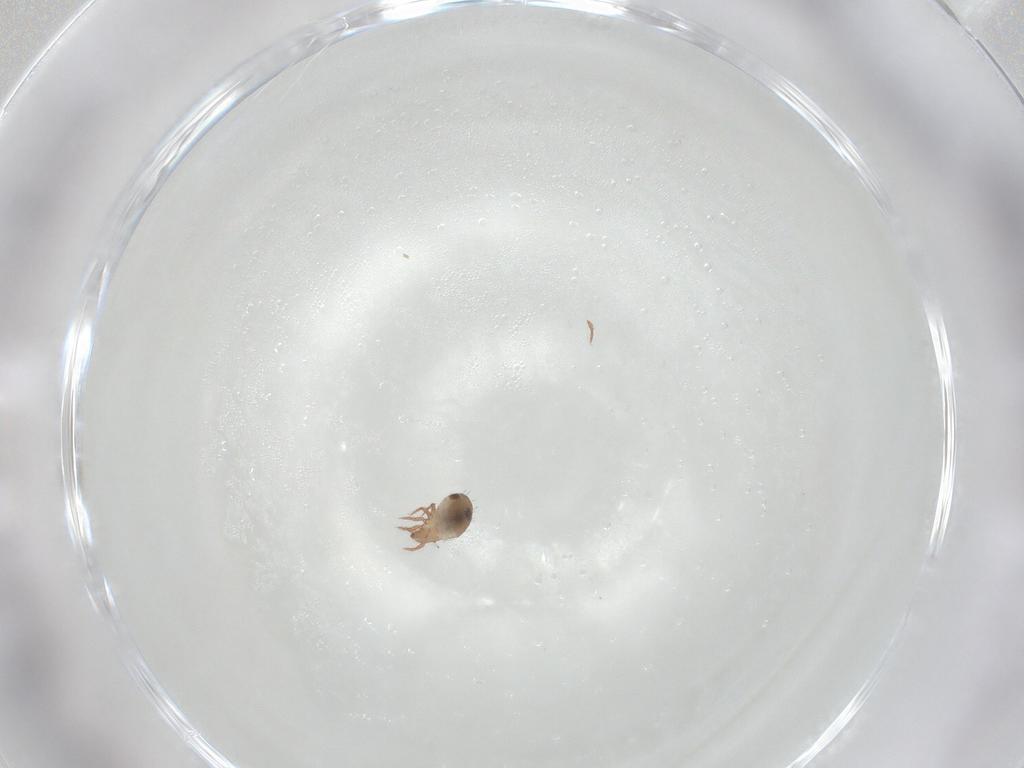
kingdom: Animalia
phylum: Arthropoda
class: Arachnida
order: Sarcoptiformes
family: Humerobatidae
